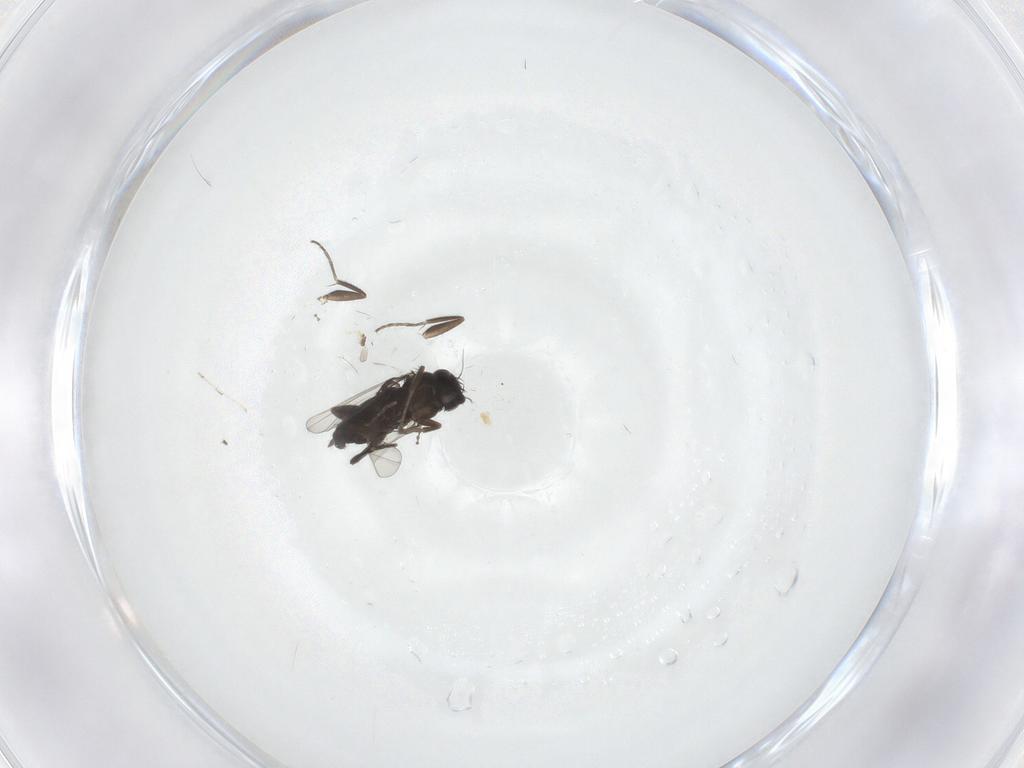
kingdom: Animalia
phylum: Arthropoda
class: Insecta
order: Diptera
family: Phoridae
